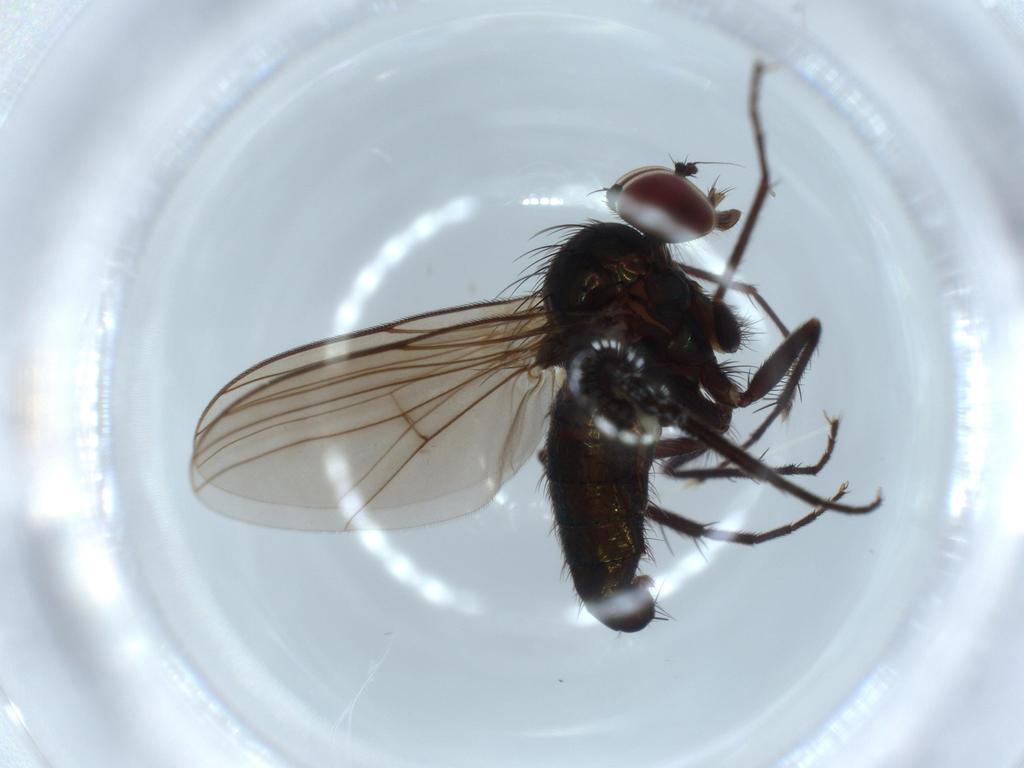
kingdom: Animalia
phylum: Arthropoda
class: Insecta
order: Diptera
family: Dolichopodidae
